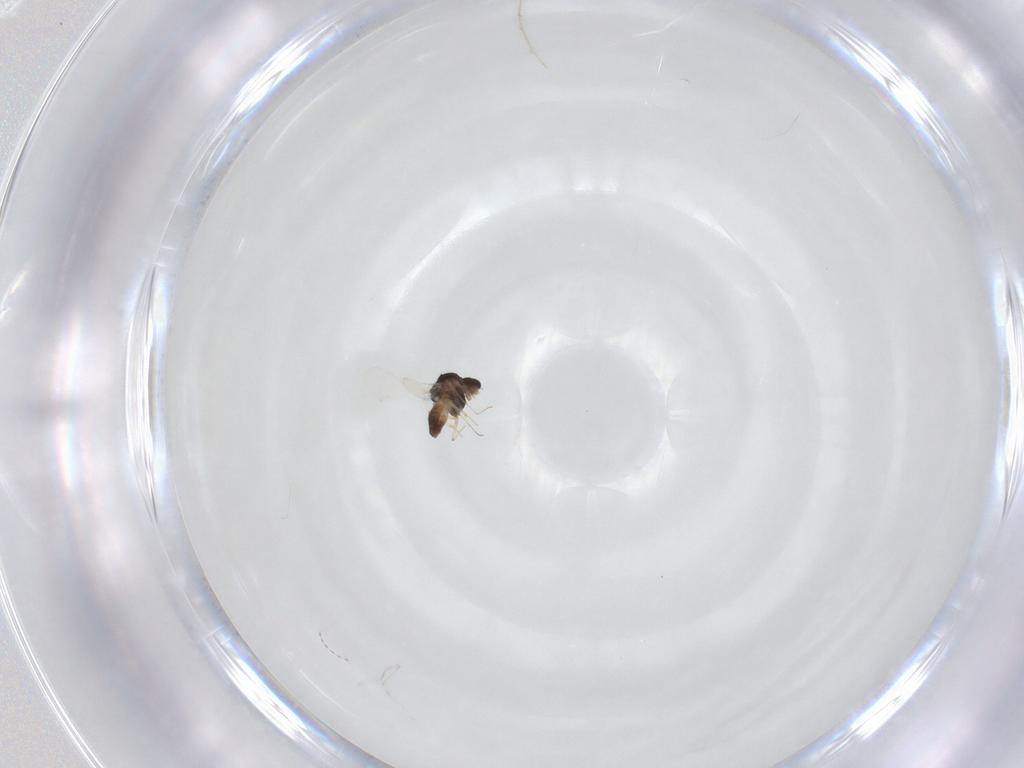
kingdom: Animalia
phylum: Arthropoda
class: Insecta
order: Diptera
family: Chironomidae
